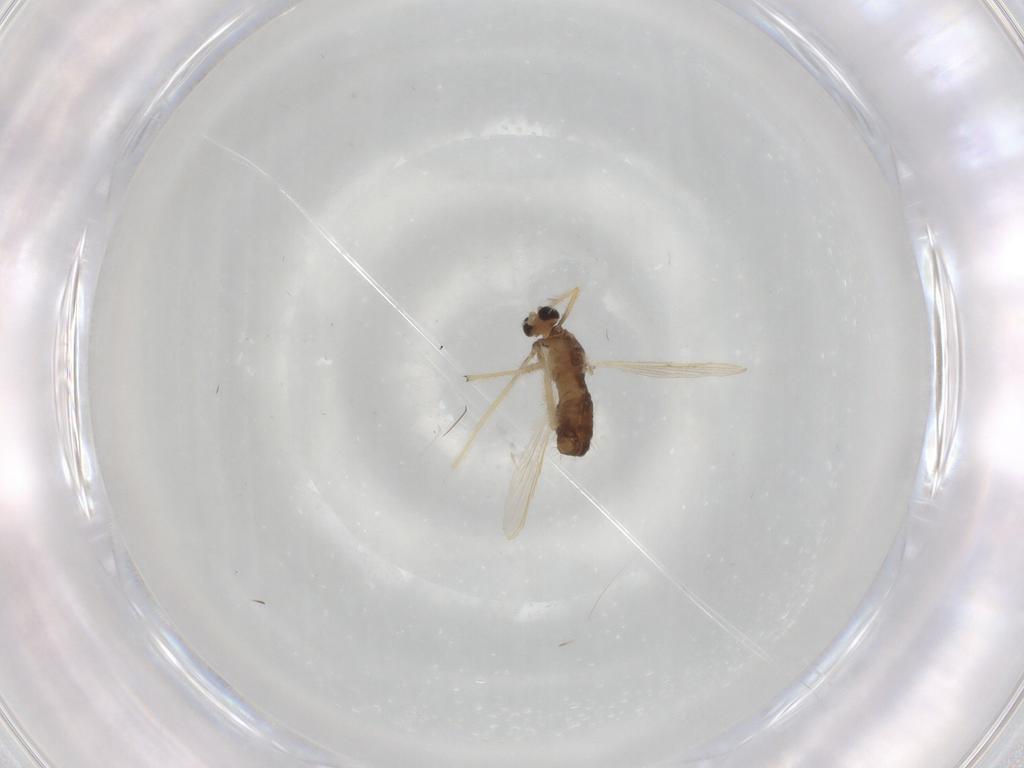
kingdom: Animalia
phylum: Arthropoda
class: Insecta
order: Diptera
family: Chironomidae
